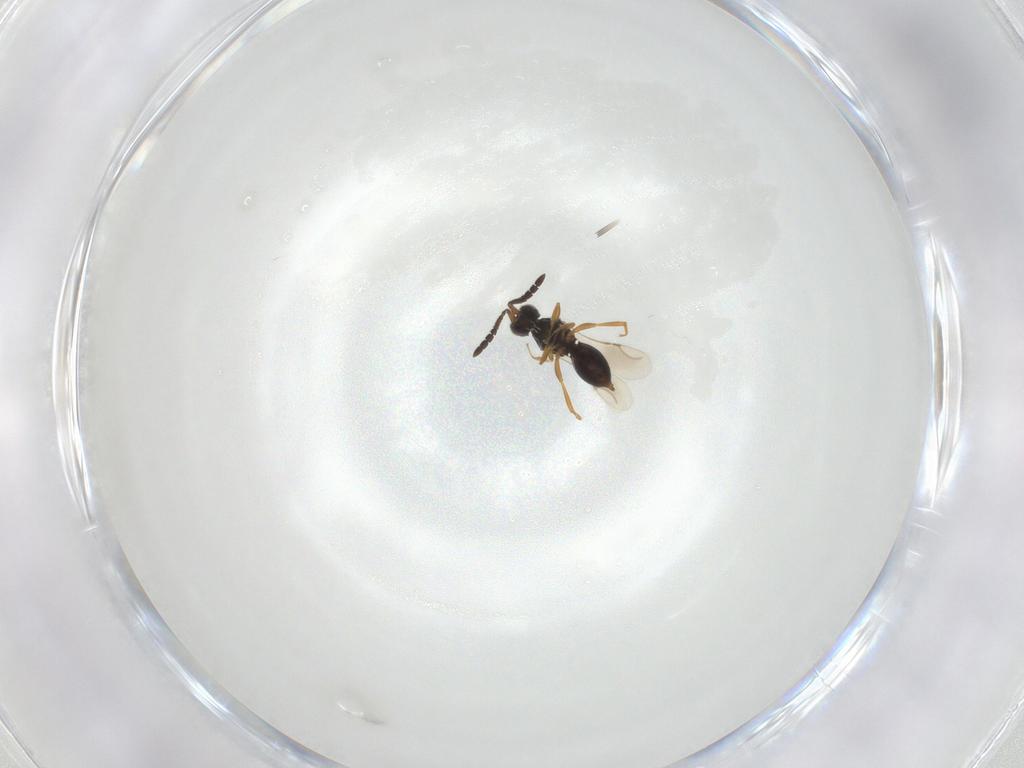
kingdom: Animalia
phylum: Arthropoda
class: Insecta
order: Hymenoptera
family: Ceraphronidae
